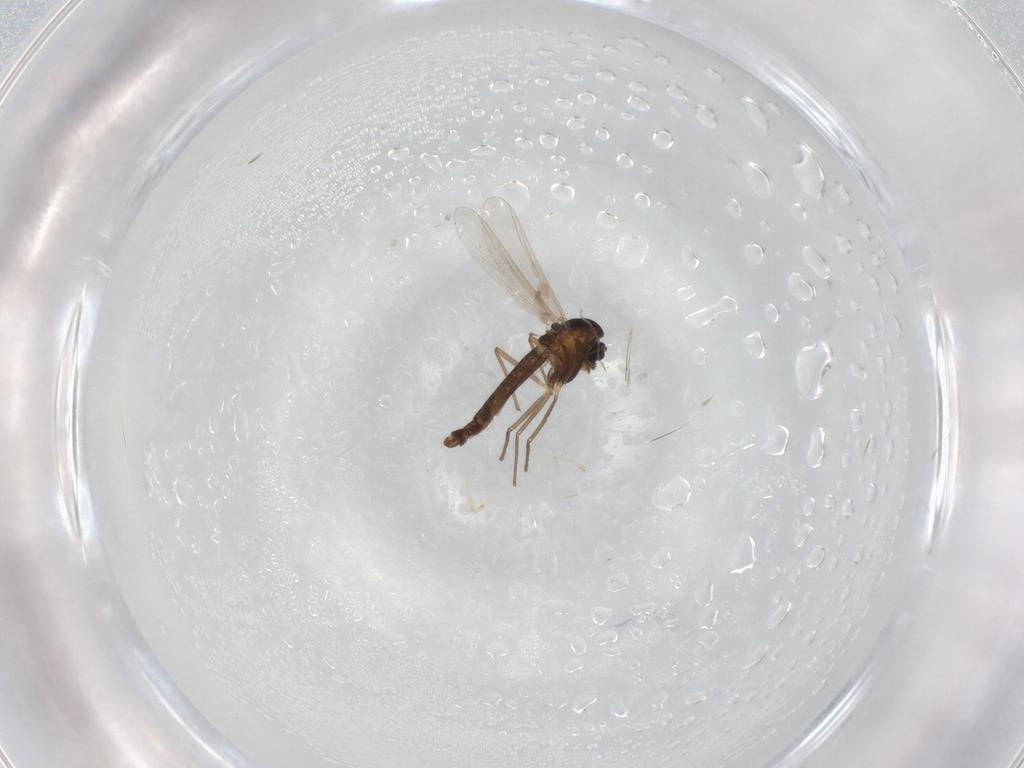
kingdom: Animalia
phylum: Arthropoda
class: Insecta
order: Diptera
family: Chironomidae
